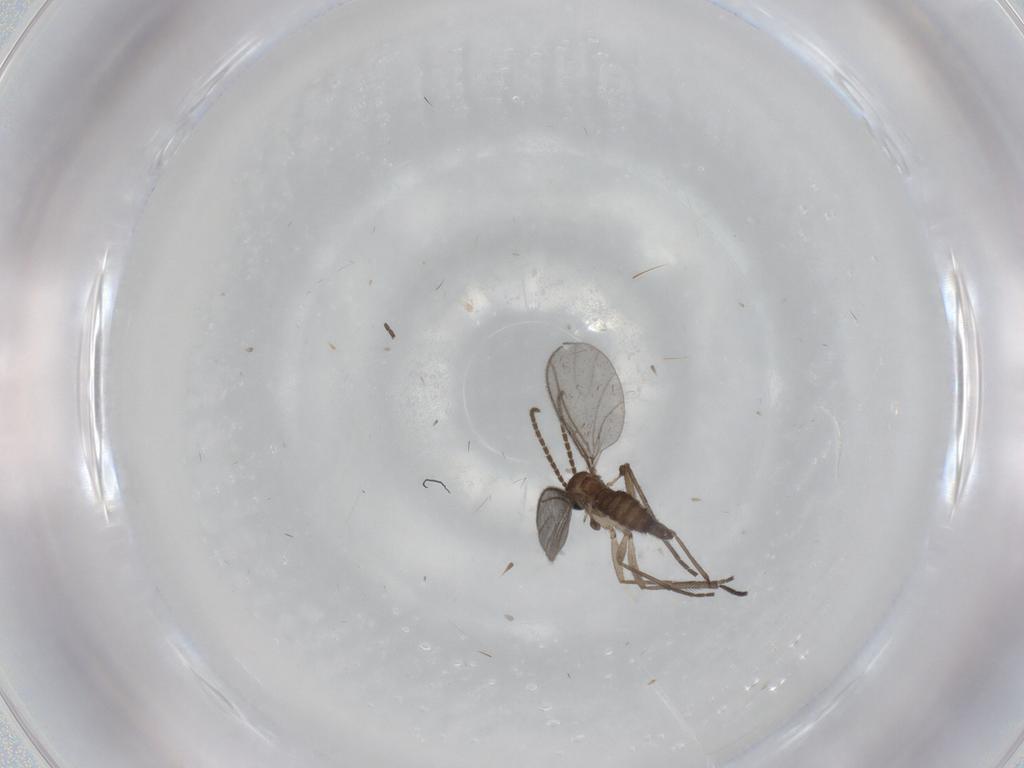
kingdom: Animalia
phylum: Arthropoda
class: Insecta
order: Diptera
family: Sciaridae
